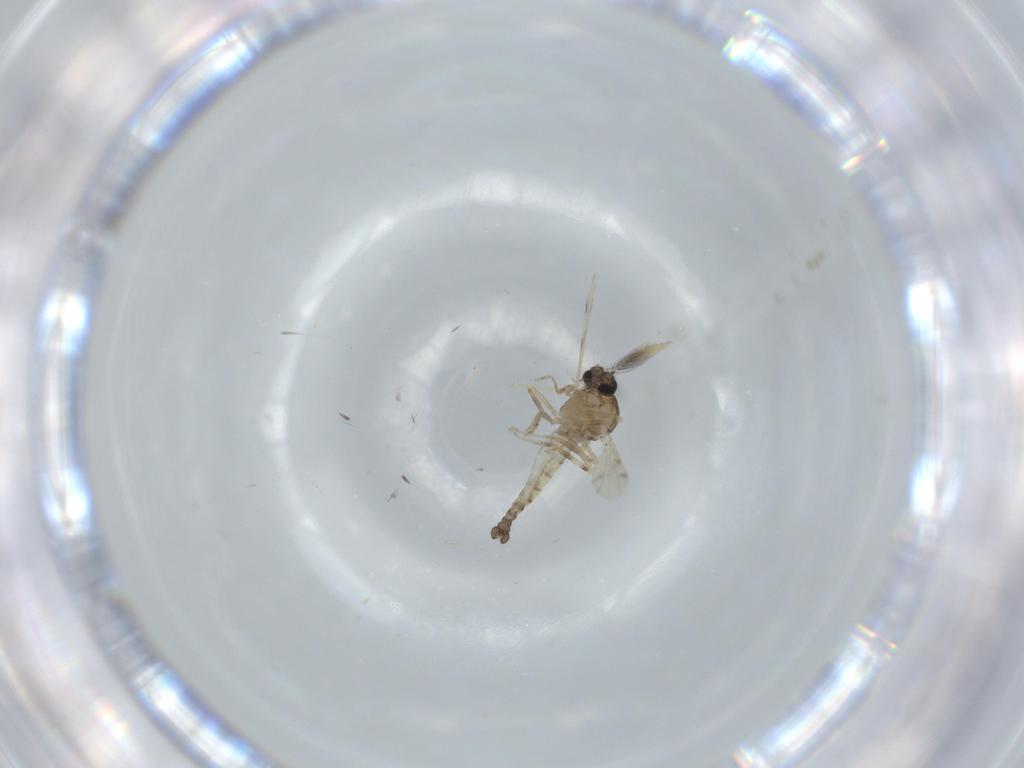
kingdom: Animalia
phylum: Arthropoda
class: Insecta
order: Diptera
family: Ceratopogonidae
